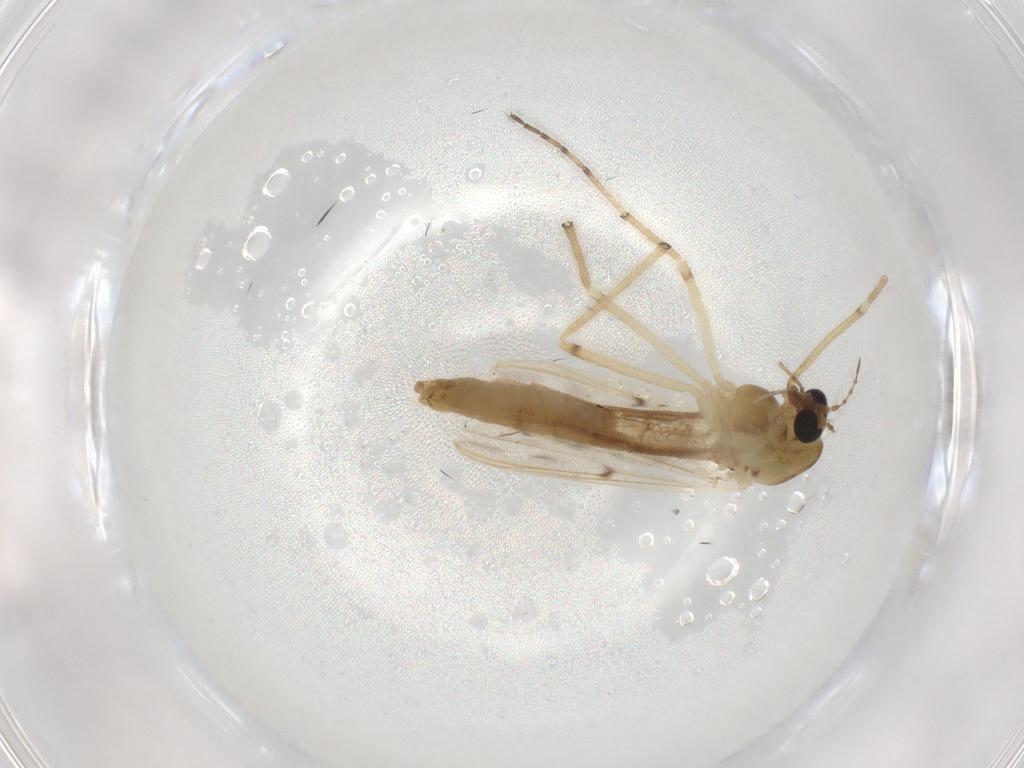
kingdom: Animalia
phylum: Arthropoda
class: Insecta
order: Diptera
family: Chironomidae
